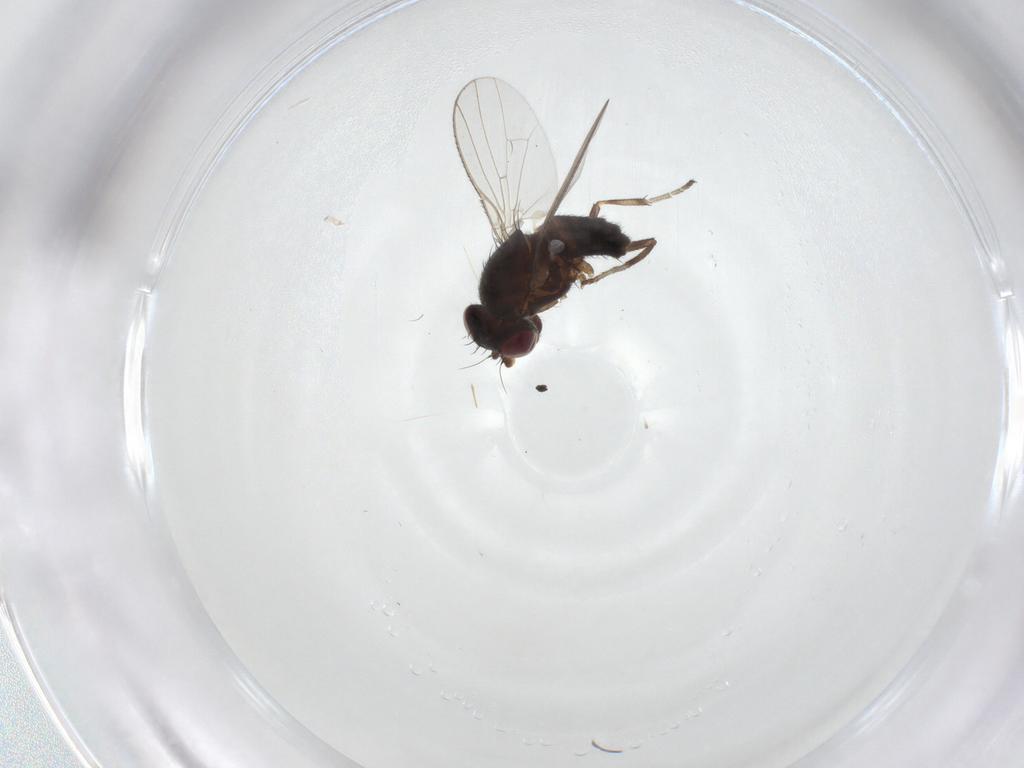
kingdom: Animalia
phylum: Arthropoda
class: Insecta
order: Diptera
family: Heleomyzidae
